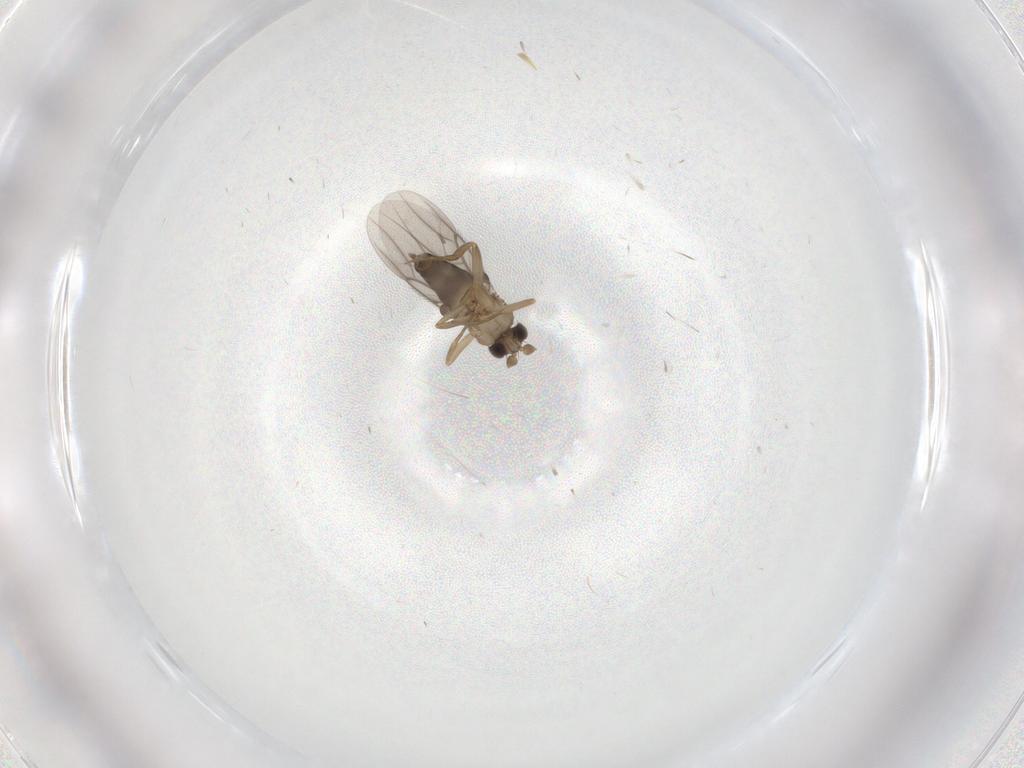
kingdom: Animalia
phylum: Arthropoda
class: Insecta
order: Diptera
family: Phoridae
